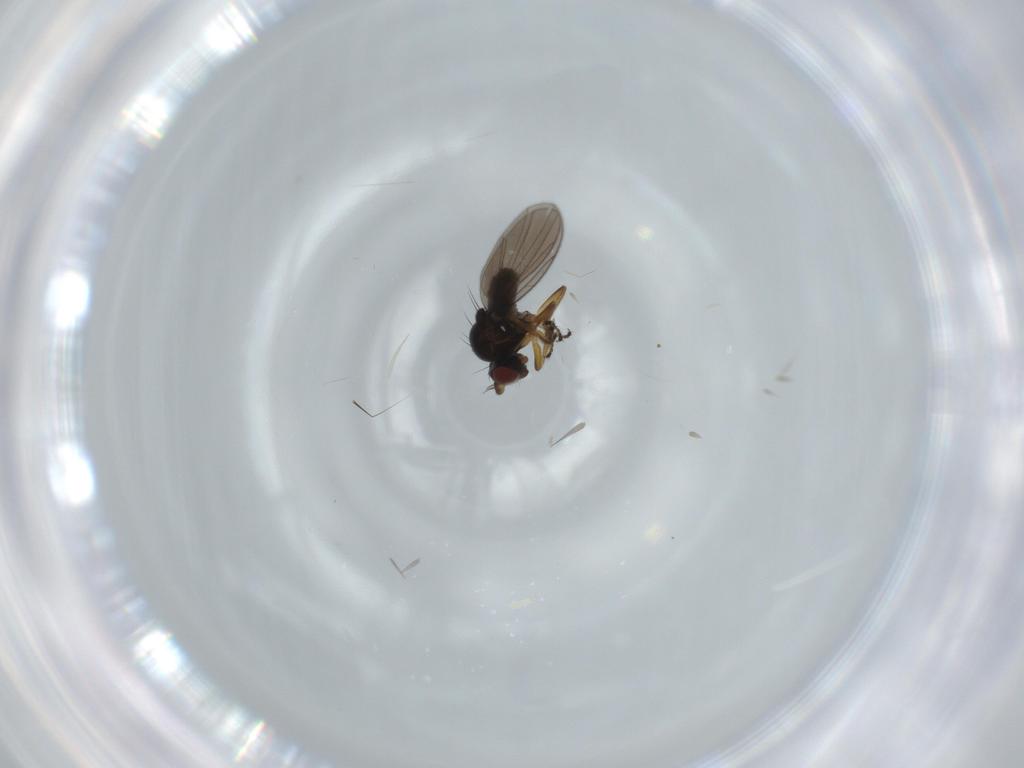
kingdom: Animalia
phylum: Arthropoda
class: Insecta
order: Diptera
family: Ephydridae
